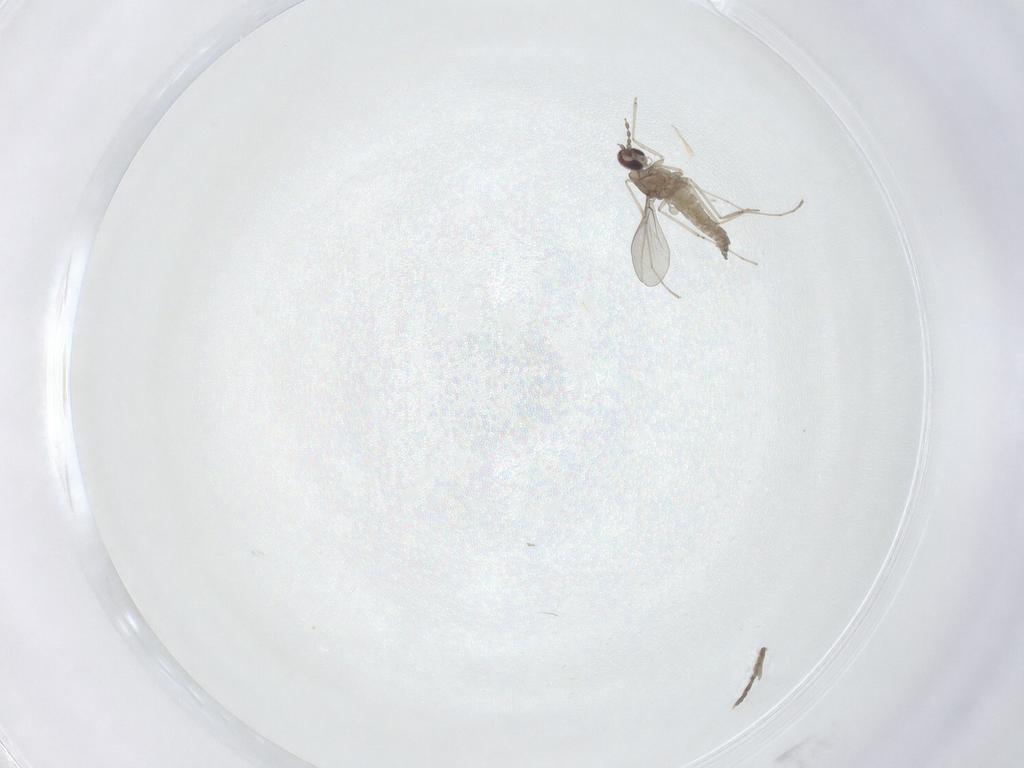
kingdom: Animalia
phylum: Arthropoda
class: Insecta
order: Diptera
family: Cecidomyiidae
